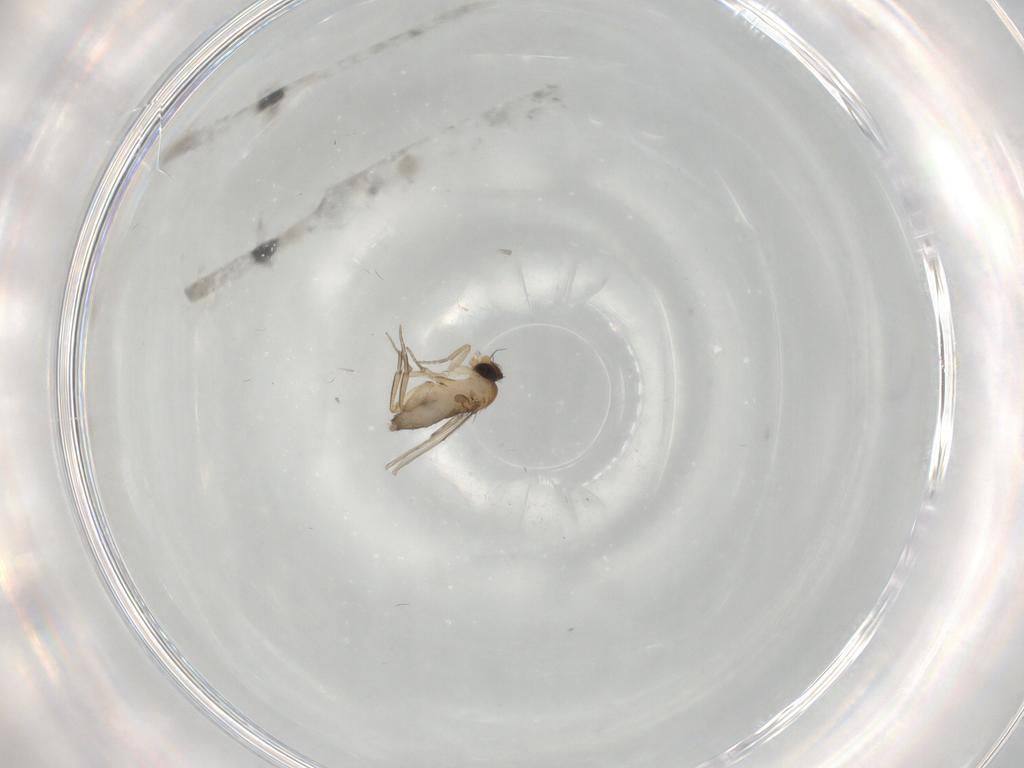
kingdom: Animalia
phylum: Arthropoda
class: Insecta
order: Diptera
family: Phoridae
